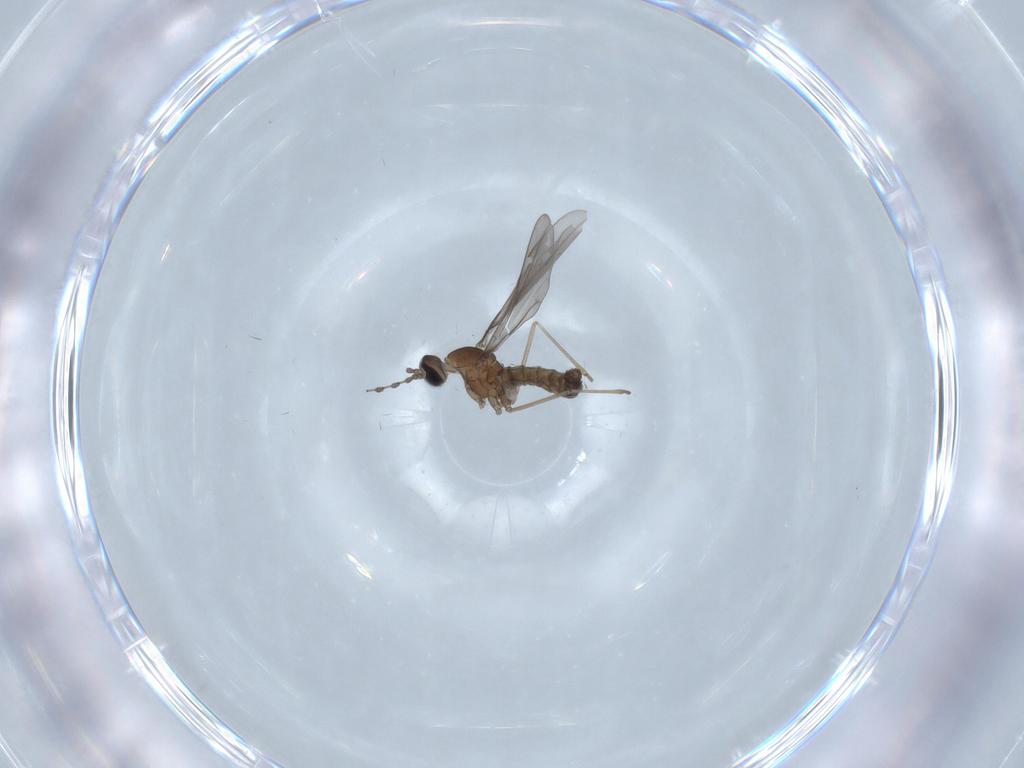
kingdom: Animalia
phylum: Arthropoda
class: Insecta
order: Diptera
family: Cecidomyiidae
